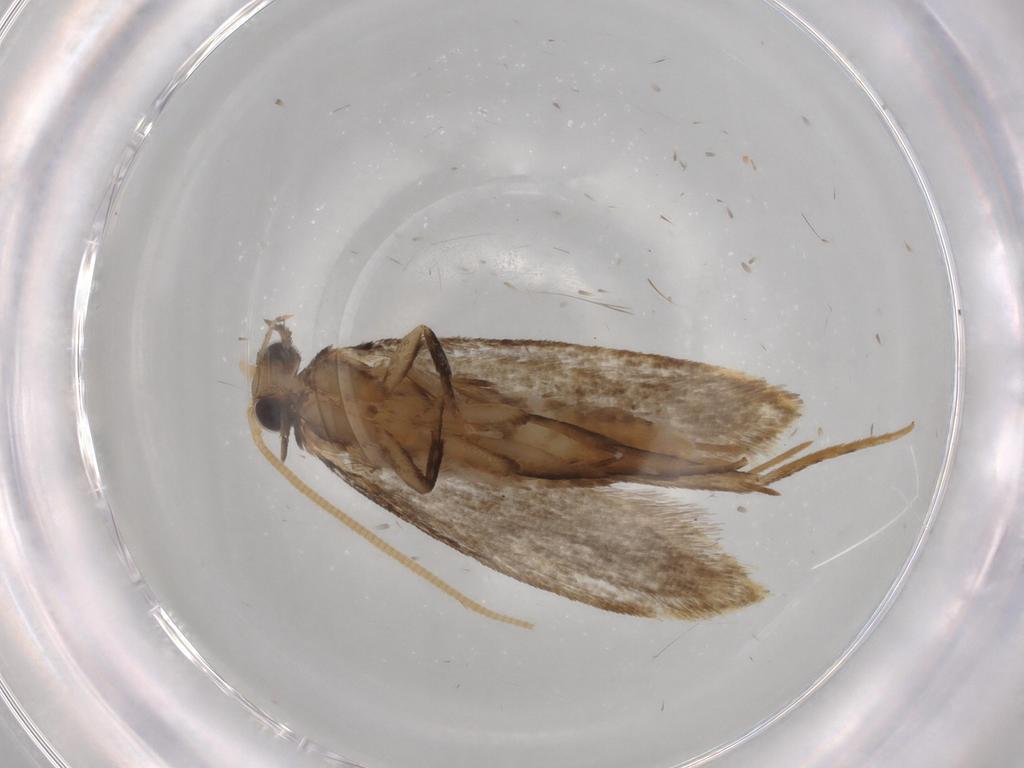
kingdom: Animalia
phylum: Arthropoda
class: Insecta
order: Lepidoptera
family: Tineidae
